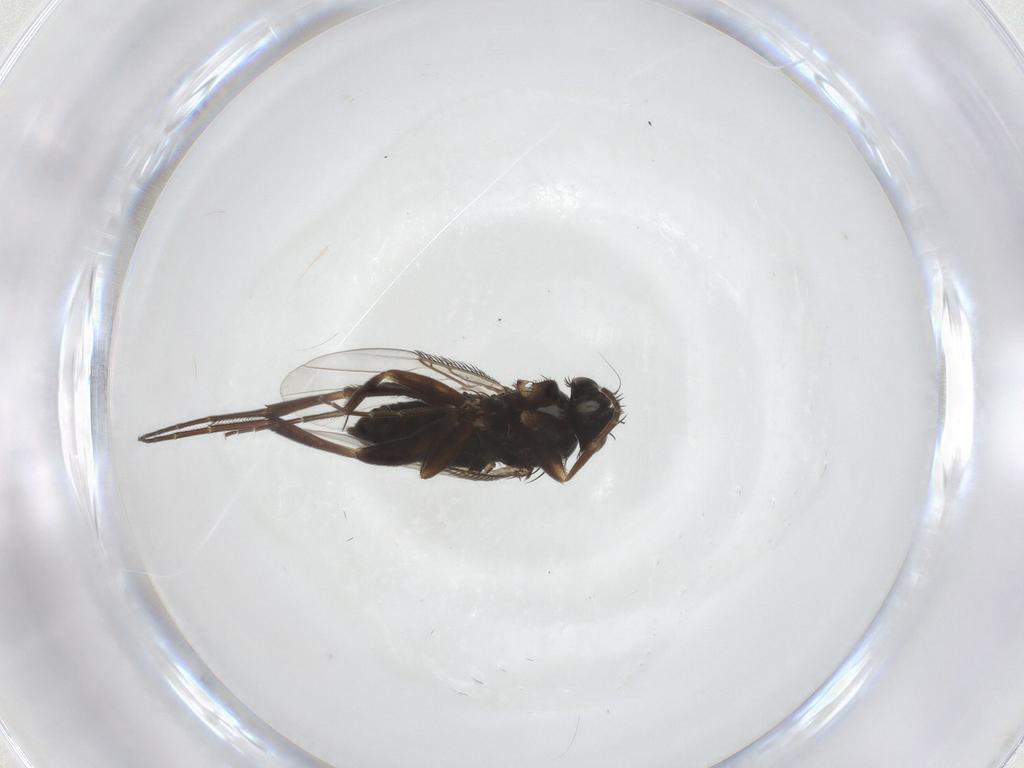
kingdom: Animalia
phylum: Arthropoda
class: Insecta
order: Diptera
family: Phoridae
